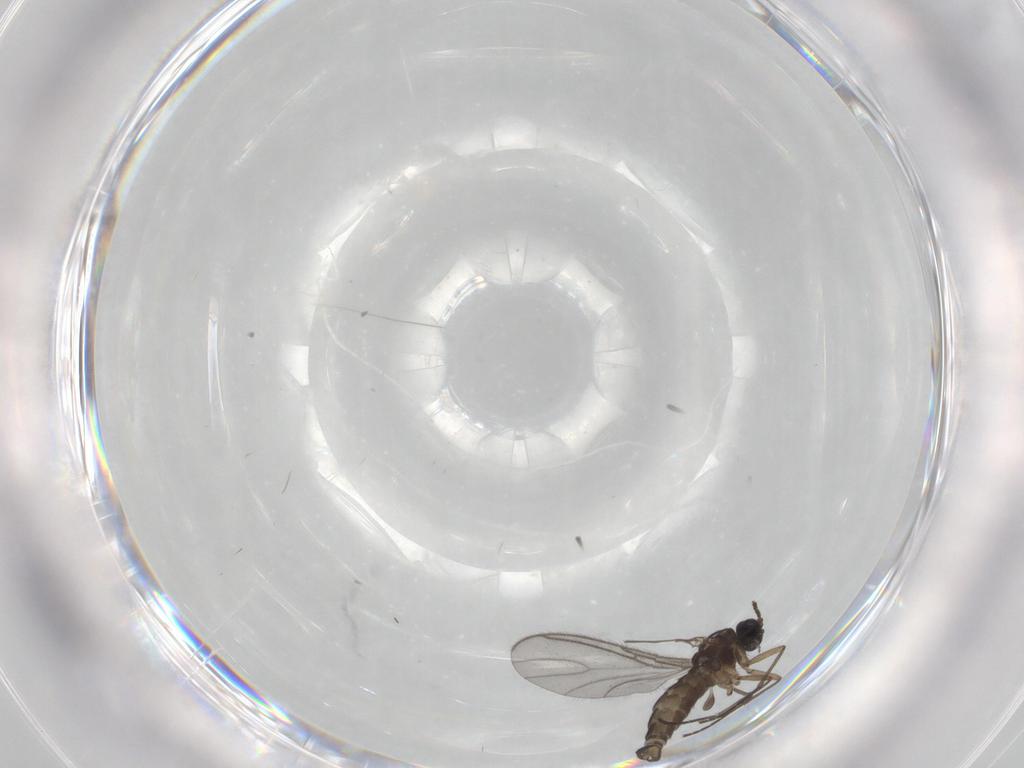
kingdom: Animalia
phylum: Arthropoda
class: Insecta
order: Diptera
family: Sciaridae
